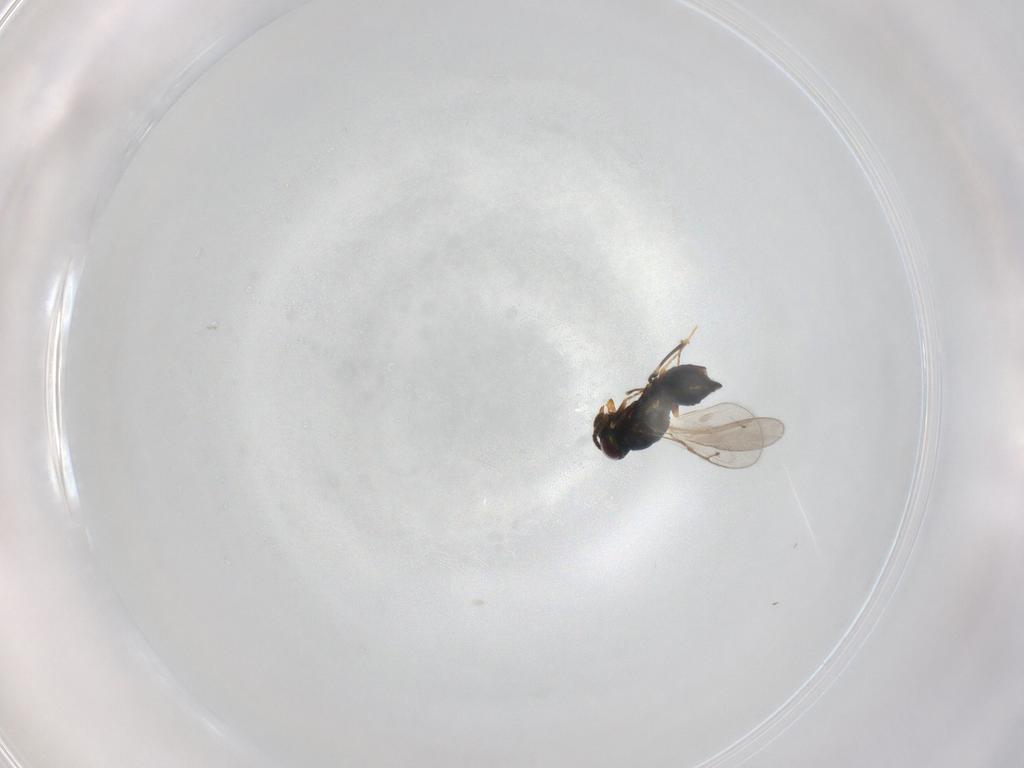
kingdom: Animalia
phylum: Arthropoda
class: Insecta
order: Hymenoptera
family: Pteromalidae
